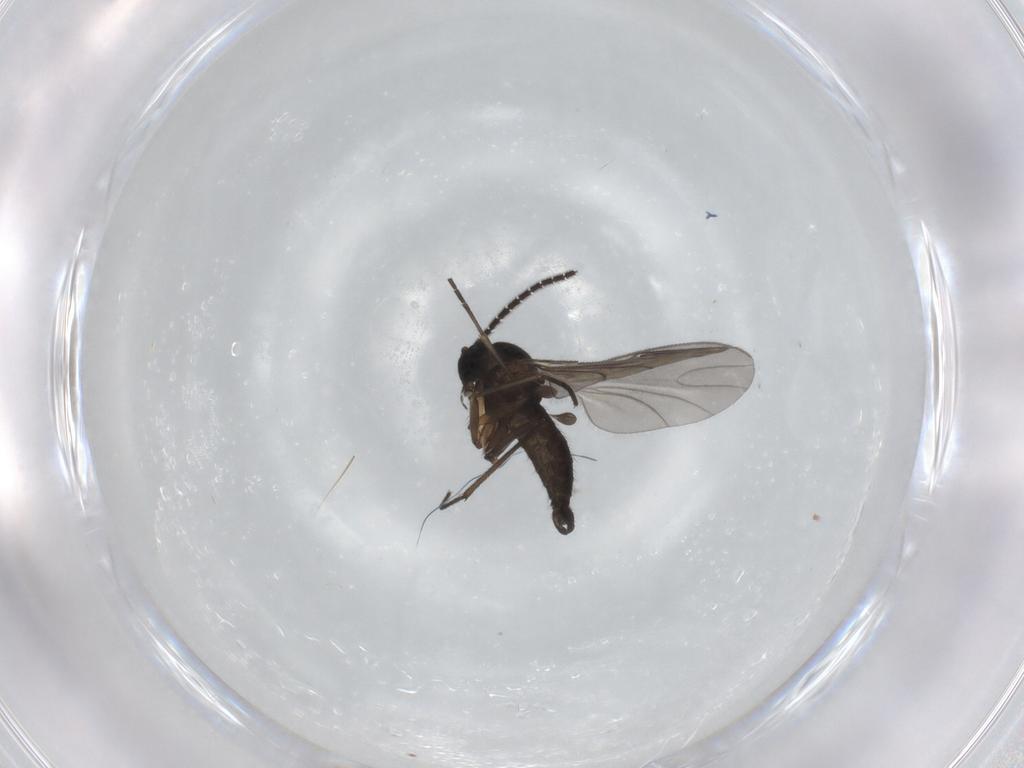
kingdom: Animalia
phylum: Arthropoda
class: Insecta
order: Diptera
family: Sciaridae
